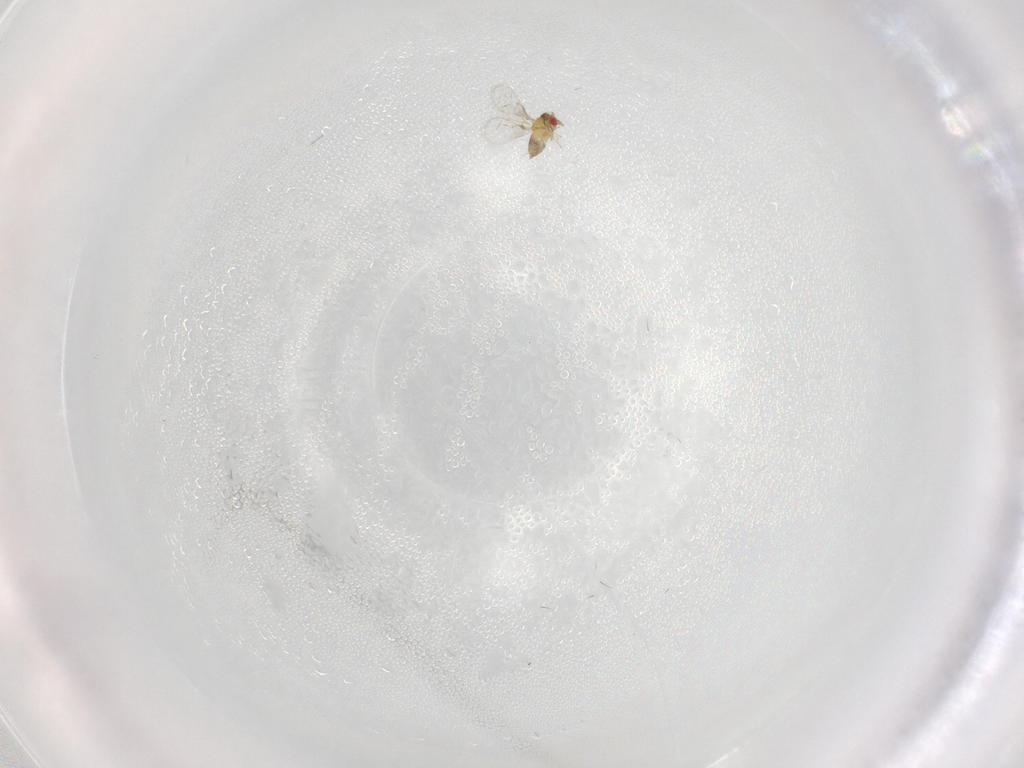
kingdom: Animalia
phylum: Arthropoda
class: Insecta
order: Hymenoptera
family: Trichogrammatidae
